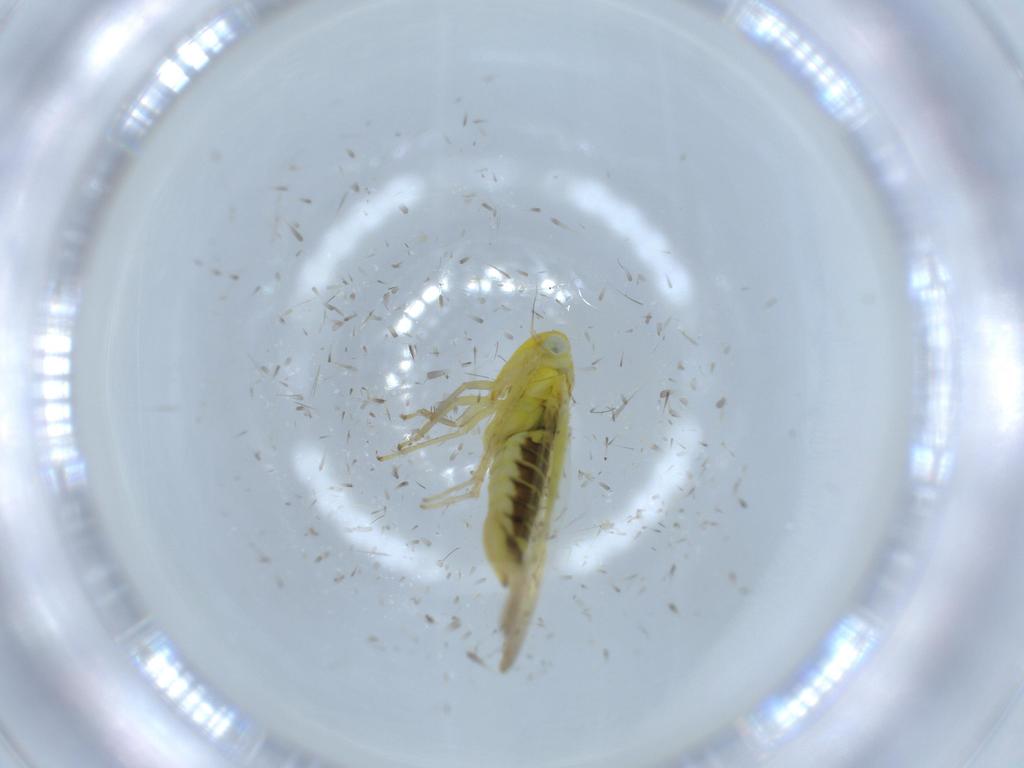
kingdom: Animalia
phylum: Arthropoda
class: Insecta
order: Hemiptera
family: Cicadellidae
